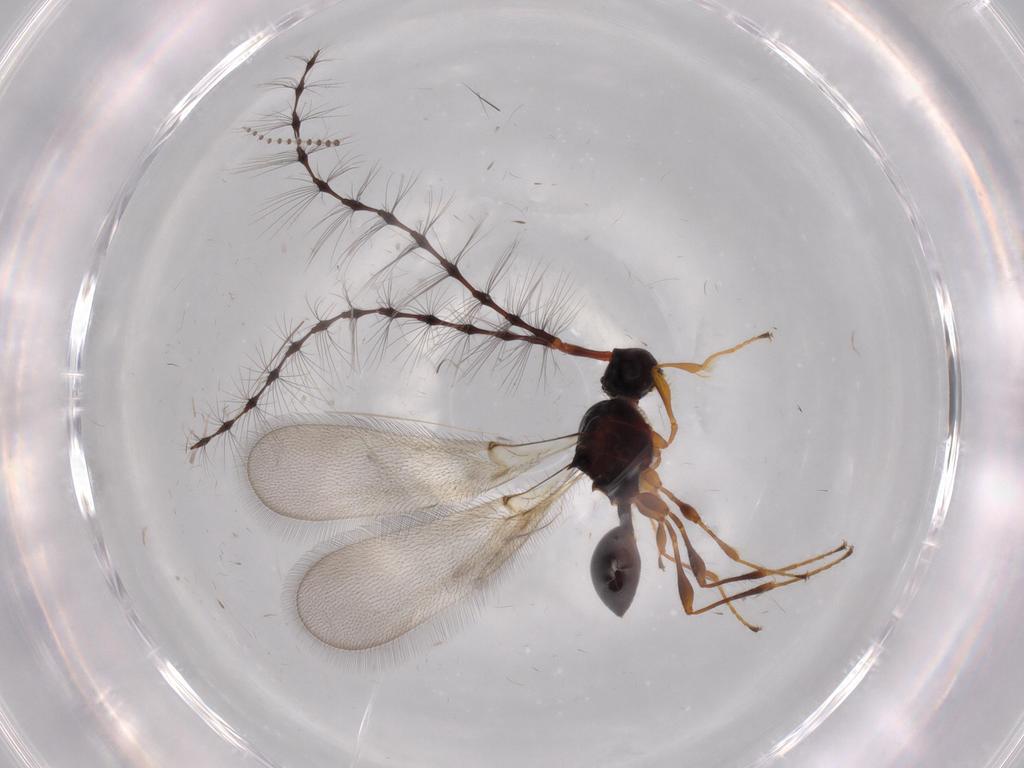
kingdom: Animalia
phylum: Arthropoda
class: Insecta
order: Hymenoptera
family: Diapriidae
